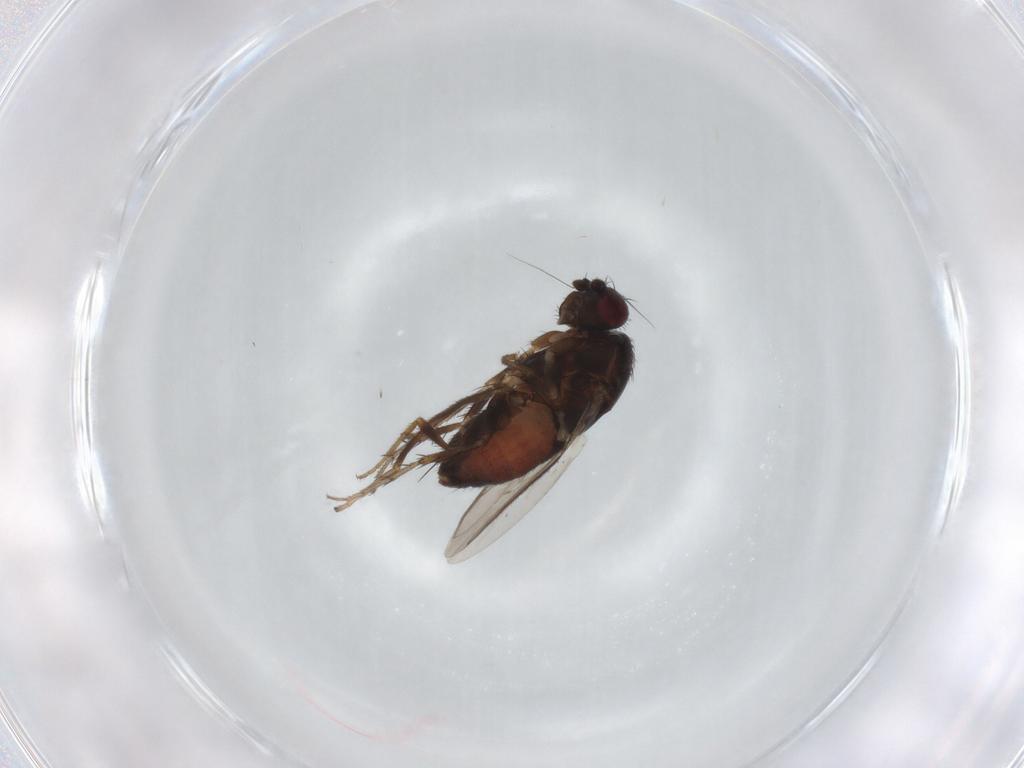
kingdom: Animalia
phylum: Arthropoda
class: Insecta
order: Diptera
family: Sphaeroceridae
